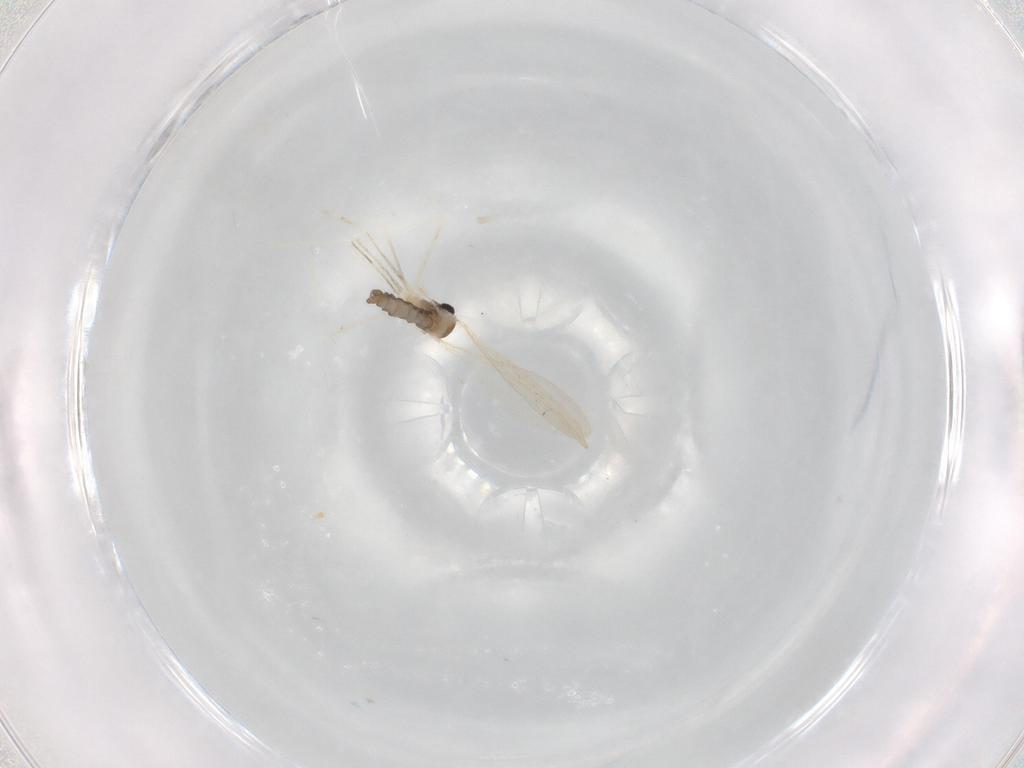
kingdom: Animalia
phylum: Arthropoda
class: Insecta
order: Diptera
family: Cecidomyiidae
